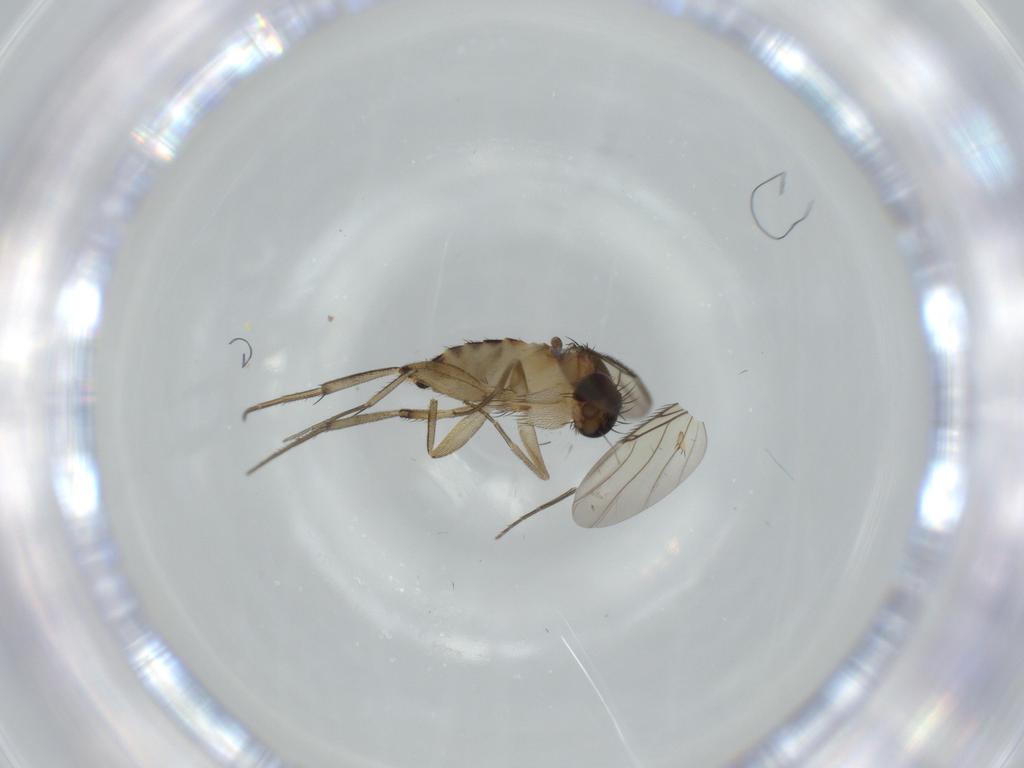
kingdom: Animalia
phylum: Arthropoda
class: Insecta
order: Diptera
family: Phoridae
